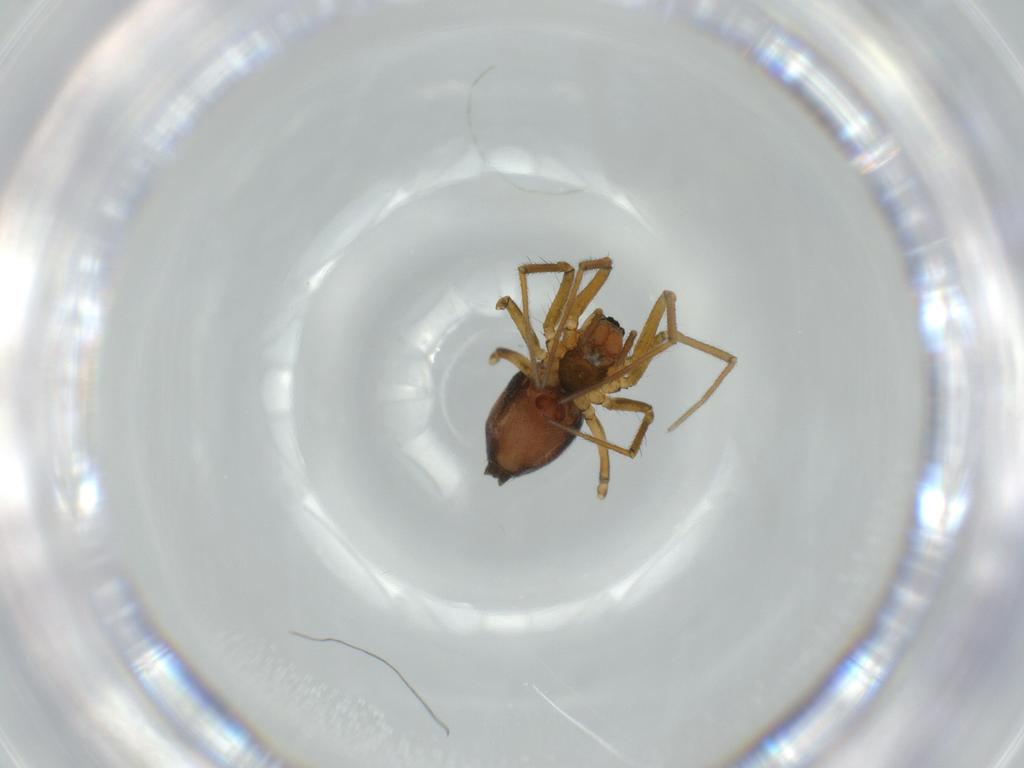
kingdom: Animalia
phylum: Arthropoda
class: Arachnida
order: Araneae
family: Linyphiidae
